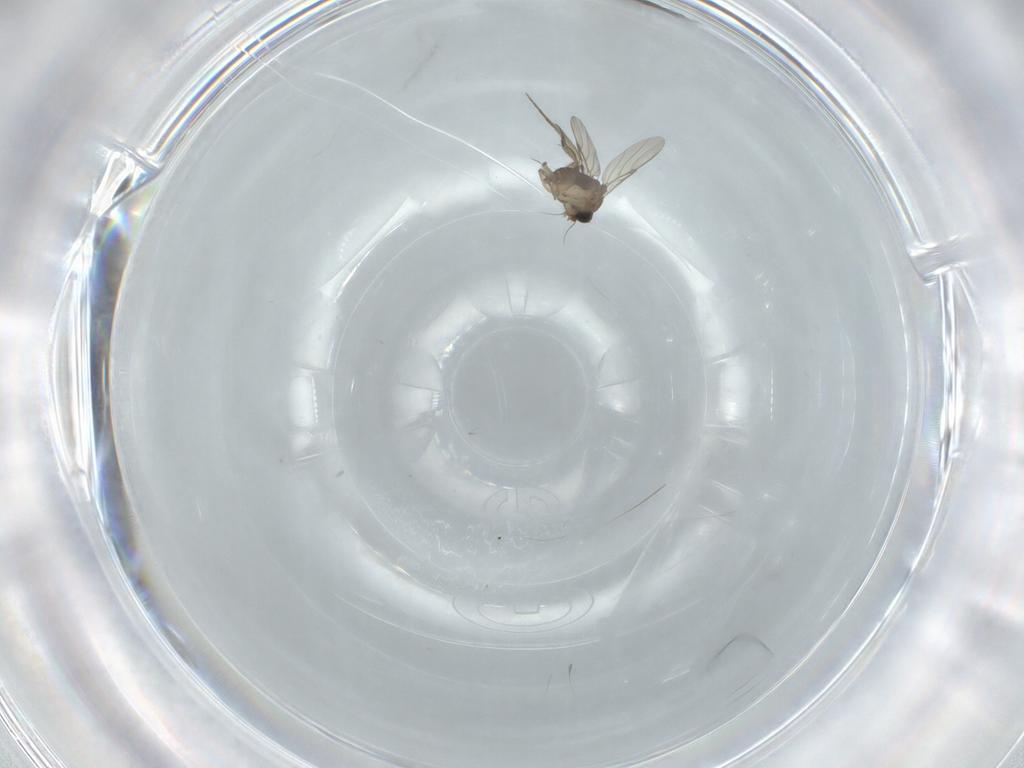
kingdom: Animalia
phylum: Arthropoda
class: Insecta
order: Diptera
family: Phoridae
